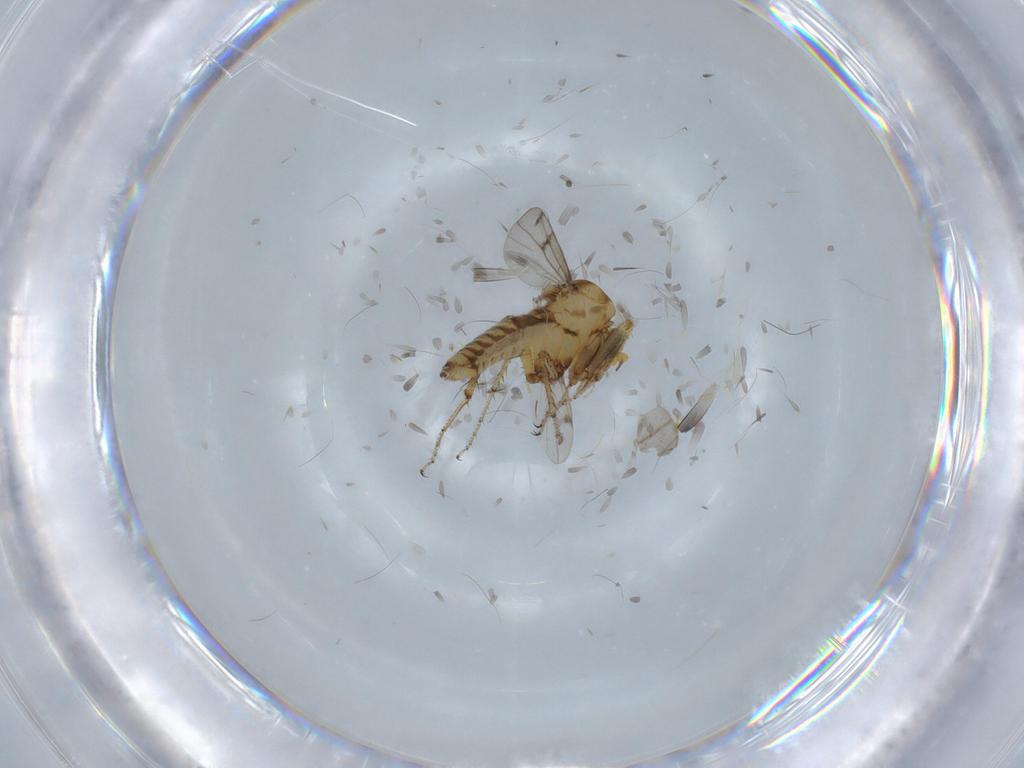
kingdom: Animalia
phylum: Arthropoda
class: Insecta
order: Diptera
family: Ceratopogonidae
